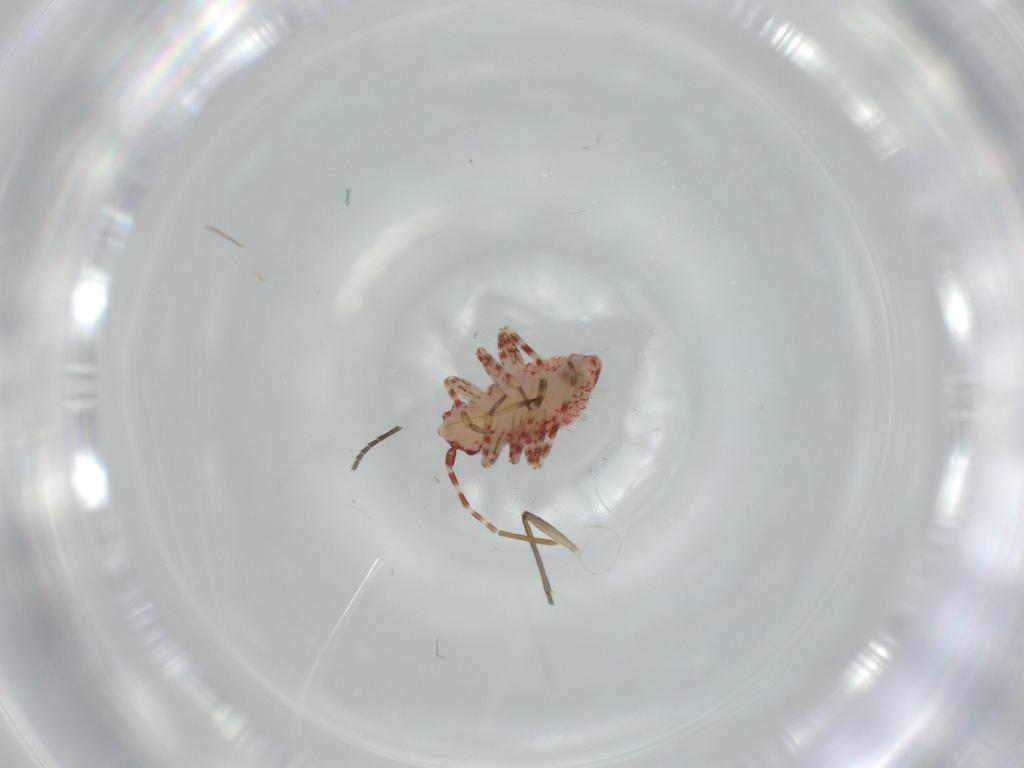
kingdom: Animalia
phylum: Arthropoda
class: Insecta
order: Hemiptera
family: Miridae
